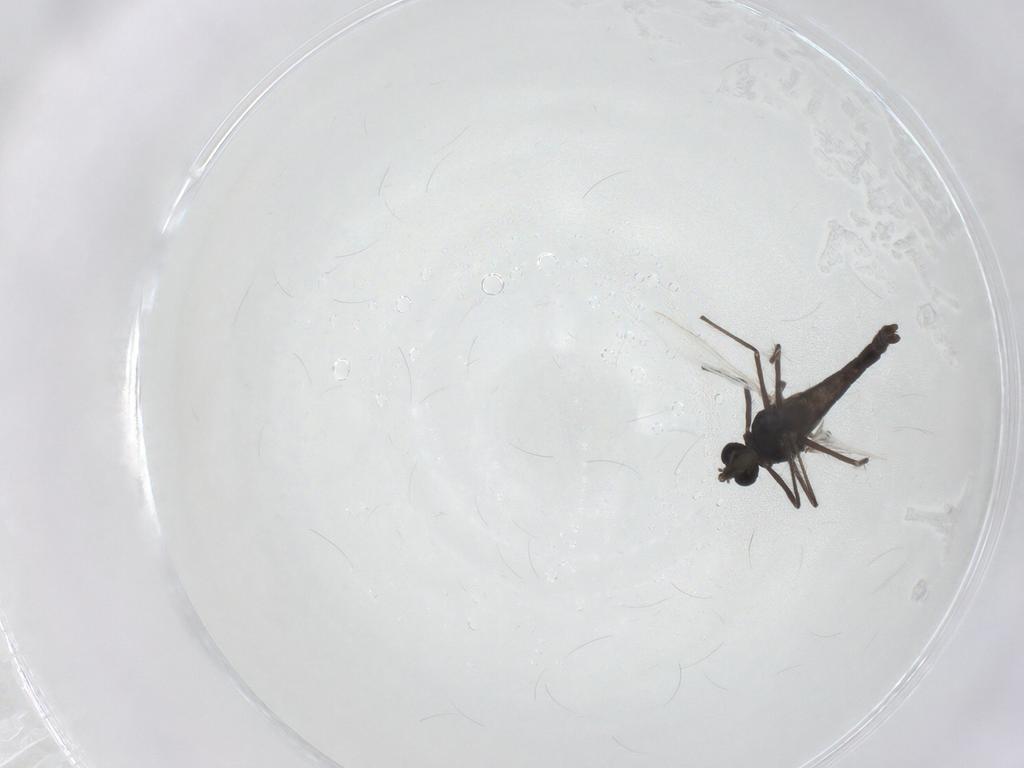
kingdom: Animalia
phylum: Arthropoda
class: Insecta
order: Diptera
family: Chironomidae
